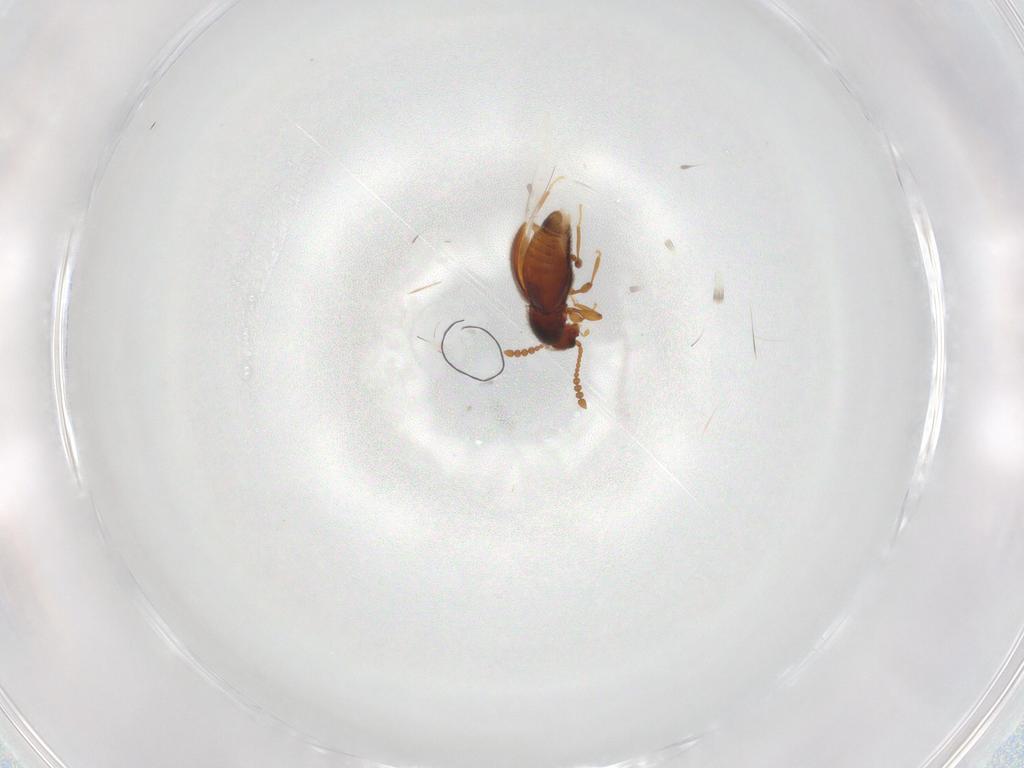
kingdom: Animalia
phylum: Arthropoda
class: Insecta
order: Coleoptera
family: Staphylinidae
